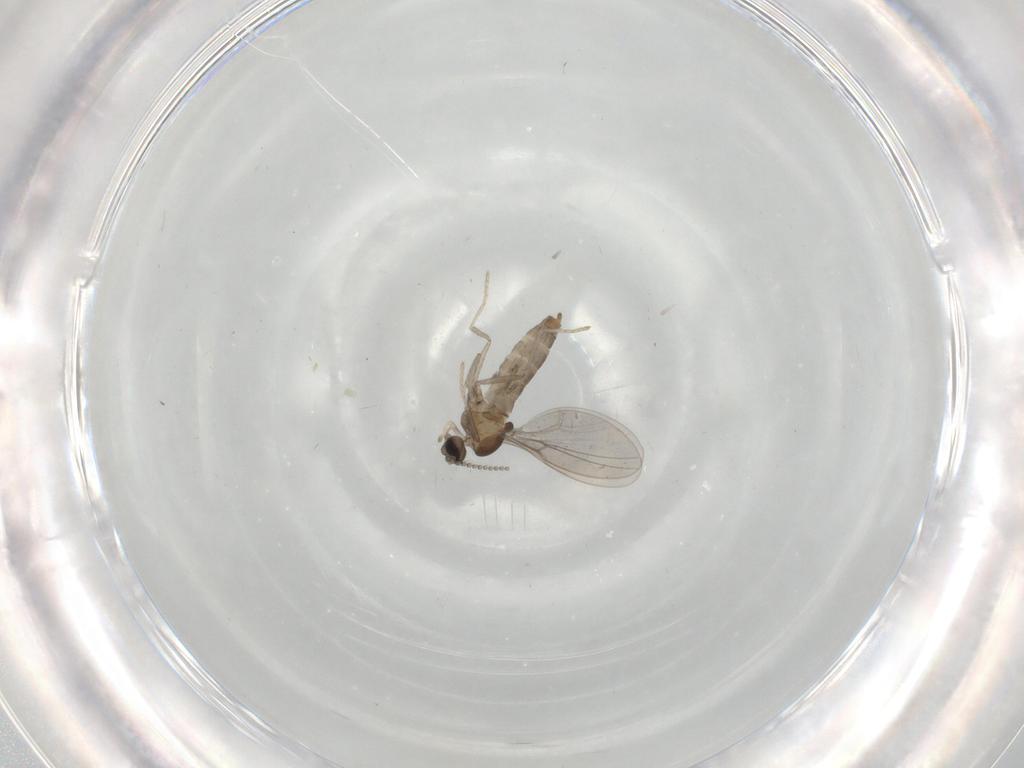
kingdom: Animalia
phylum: Arthropoda
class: Insecta
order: Diptera
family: Cecidomyiidae
